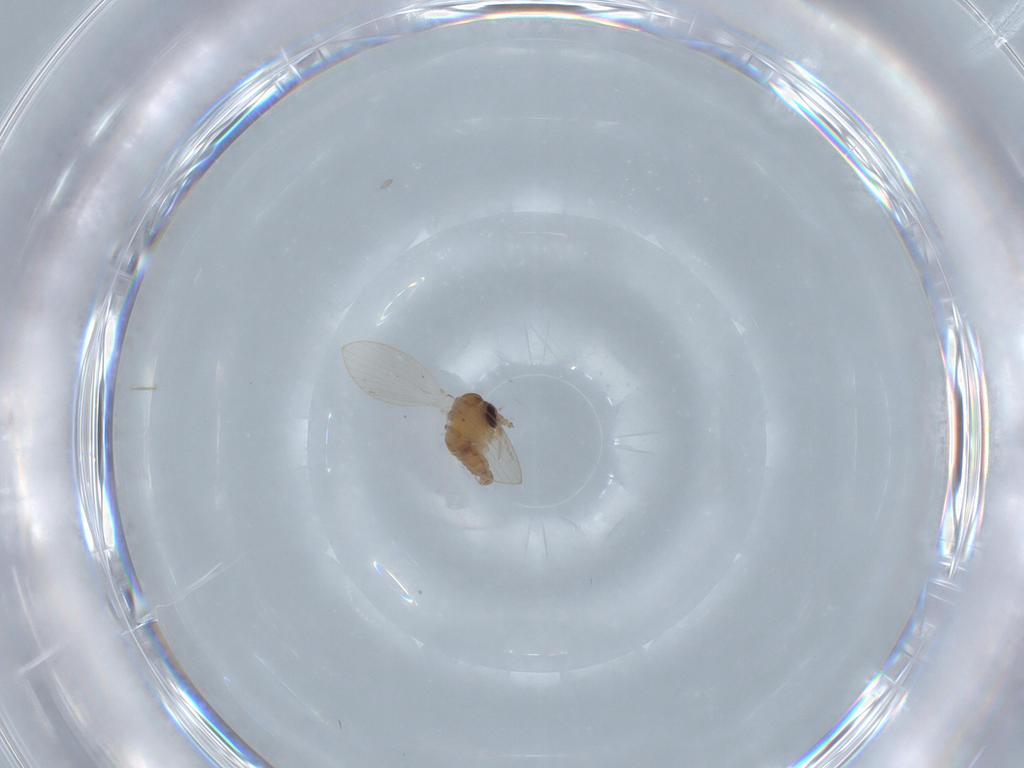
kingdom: Animalia
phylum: Arthropoda
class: Insecta
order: Diptera
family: Psychodidae
